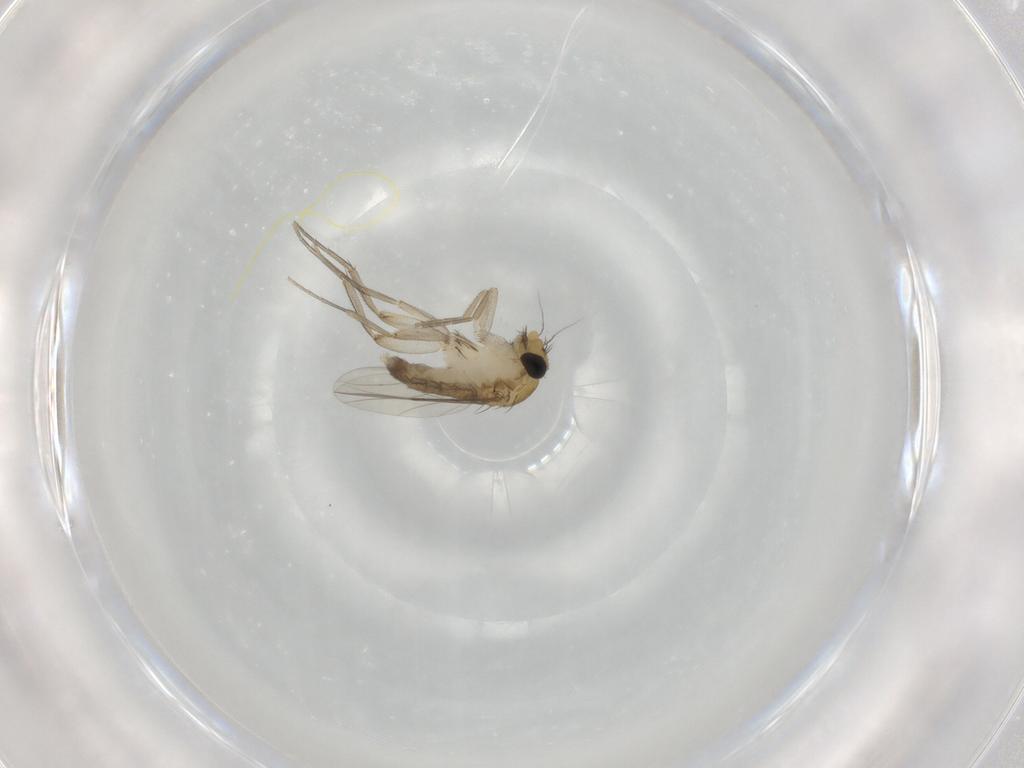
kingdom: Animalia
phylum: Arthropoda
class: Insecta
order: Diptera
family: Phoridae
